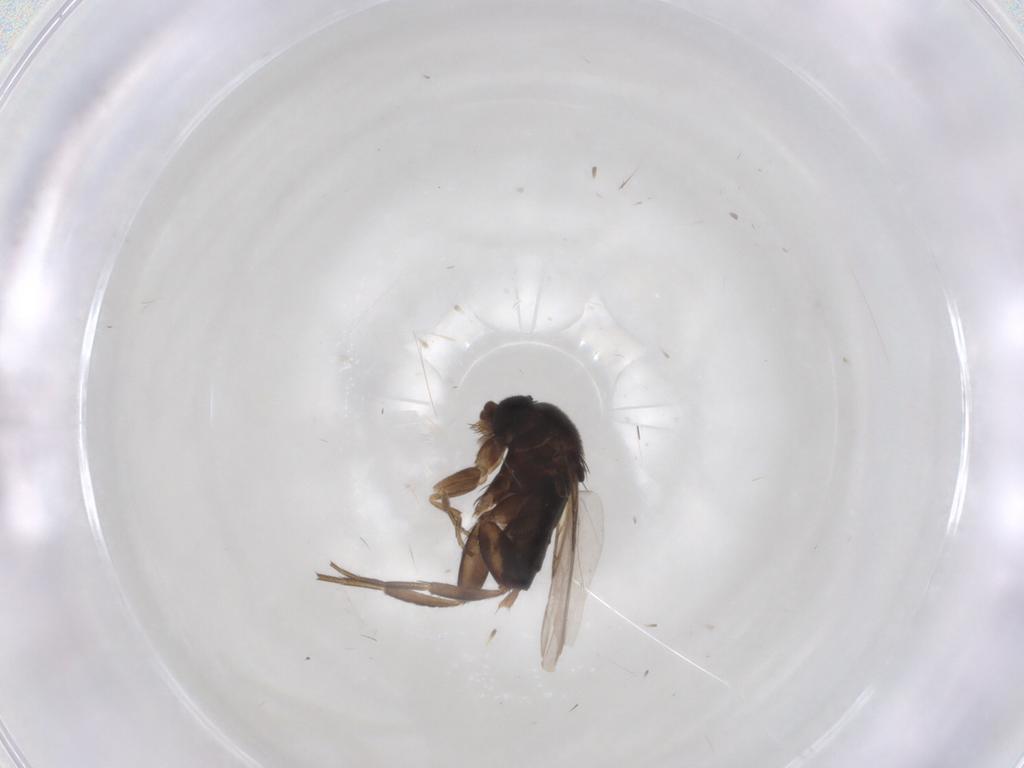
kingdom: Animalia
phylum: Arthropoda
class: Insecta
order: Diptera
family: Phoridae
